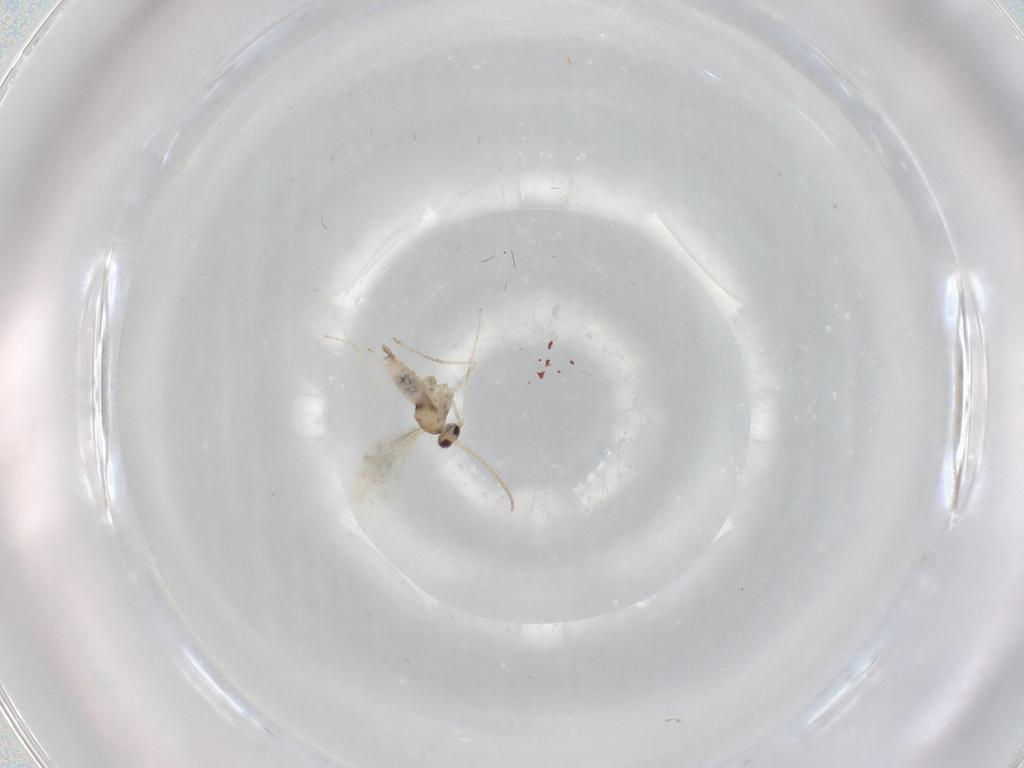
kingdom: Animalia
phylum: Arthropoda
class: Insecta
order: Diptera
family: Cecidomyiidae
